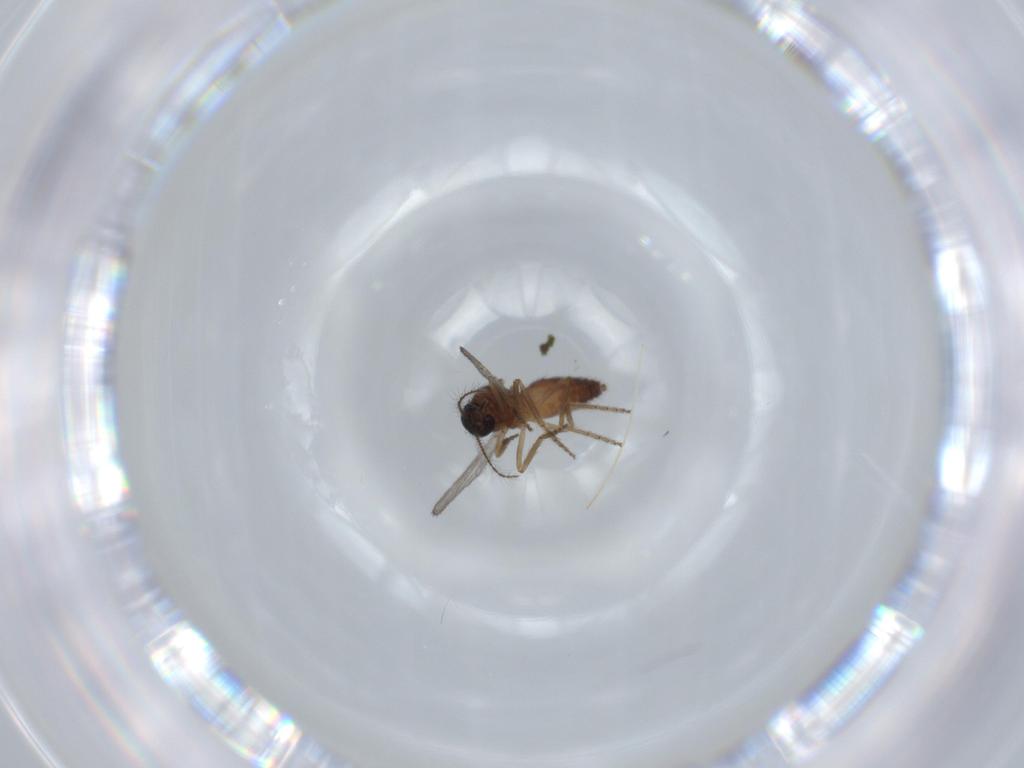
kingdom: Animalia
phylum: Arthropoda
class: Insecta
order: Diptera
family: Ceratopogonidae
